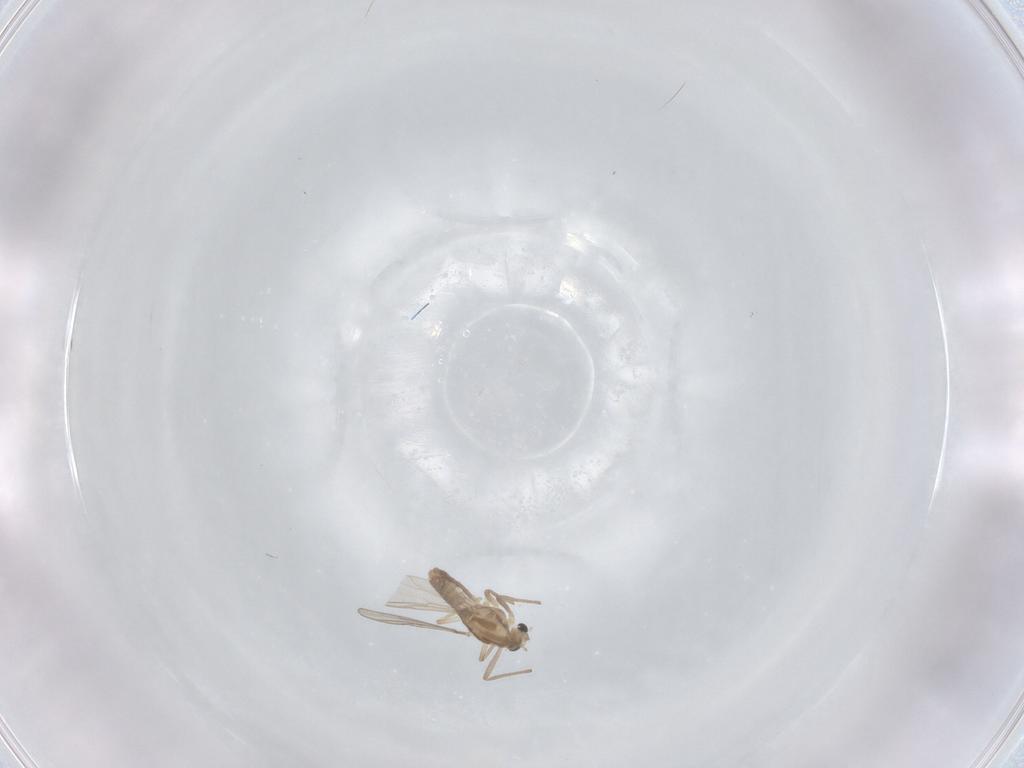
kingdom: Animalia
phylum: Arthropoda
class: Insecta
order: Diptera
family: Chironomidae
